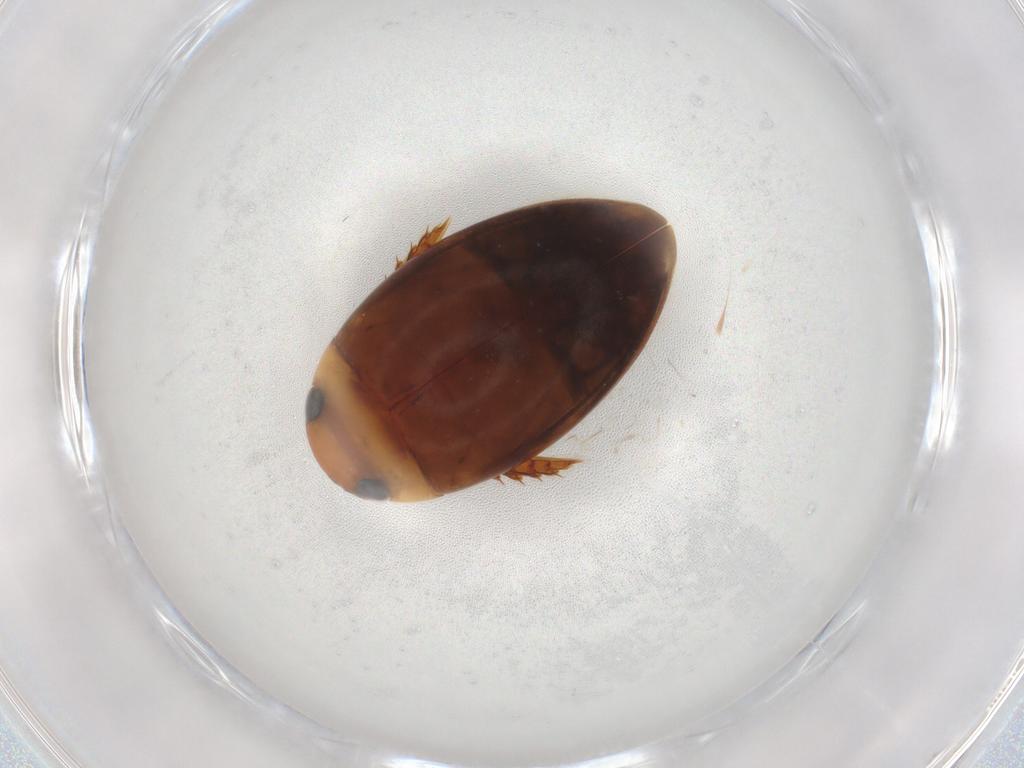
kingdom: Animalia
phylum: Arthropoda
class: Insecta
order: Coleoptera
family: Dytiscidae
